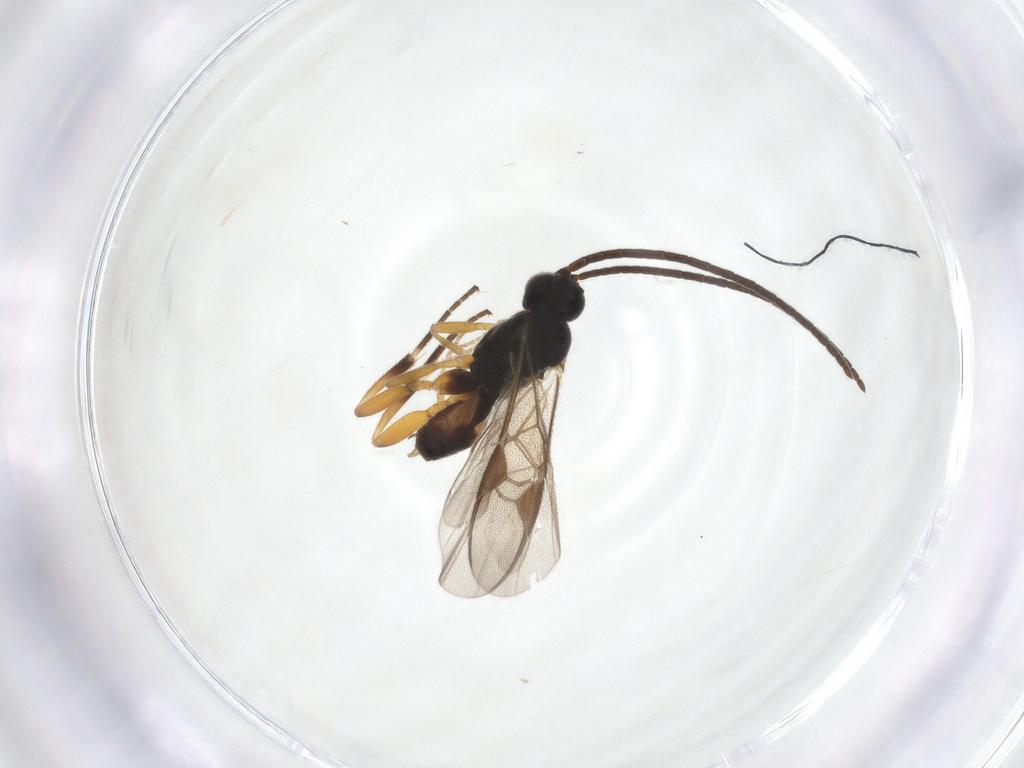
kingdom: Animalia
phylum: Arthropoda
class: Insecta
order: Hymenoptera
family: Braconidae
